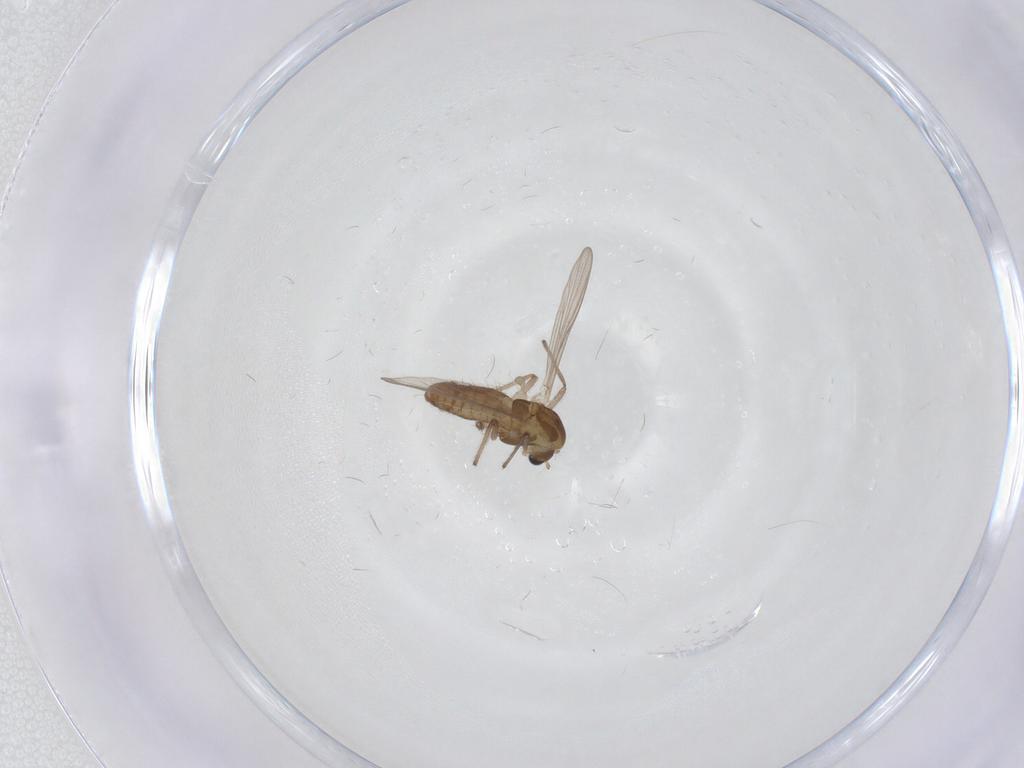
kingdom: Animalia
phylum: Arthropoda
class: Insecta
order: Diptera
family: Chironomidae
